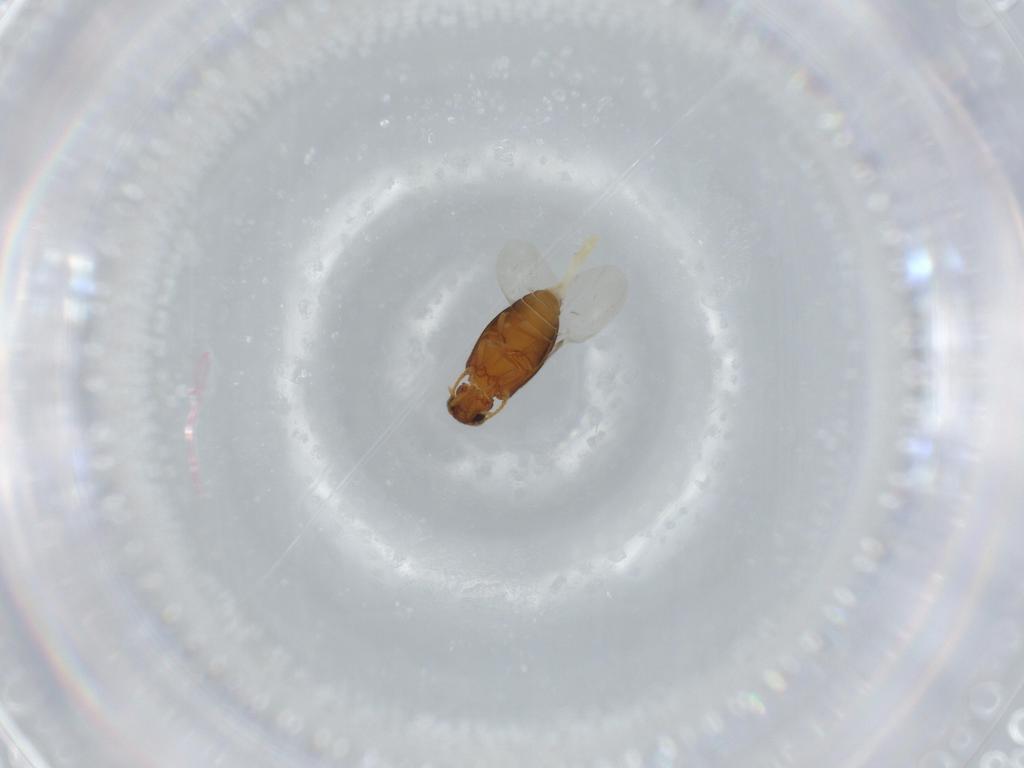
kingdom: Animalia
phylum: Arthropoda
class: Insecta
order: Coleoptera
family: Aderidae
